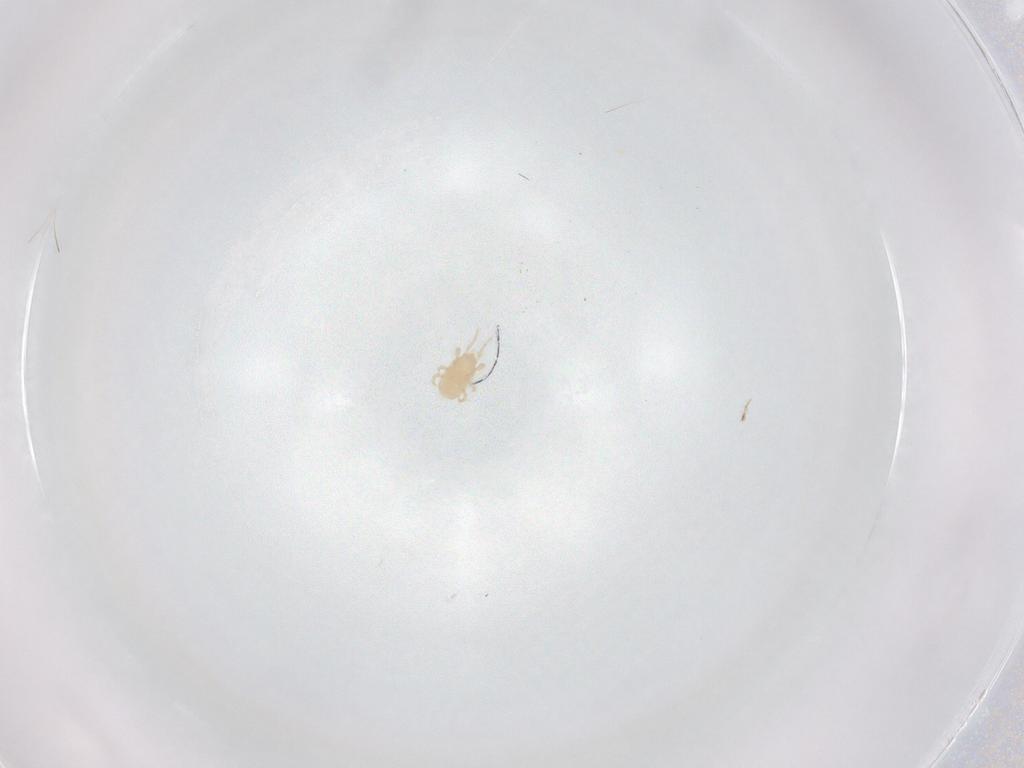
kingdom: Animalia
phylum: Arthropoda
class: Arachnida
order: Mesostigmata
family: Melicharidae
